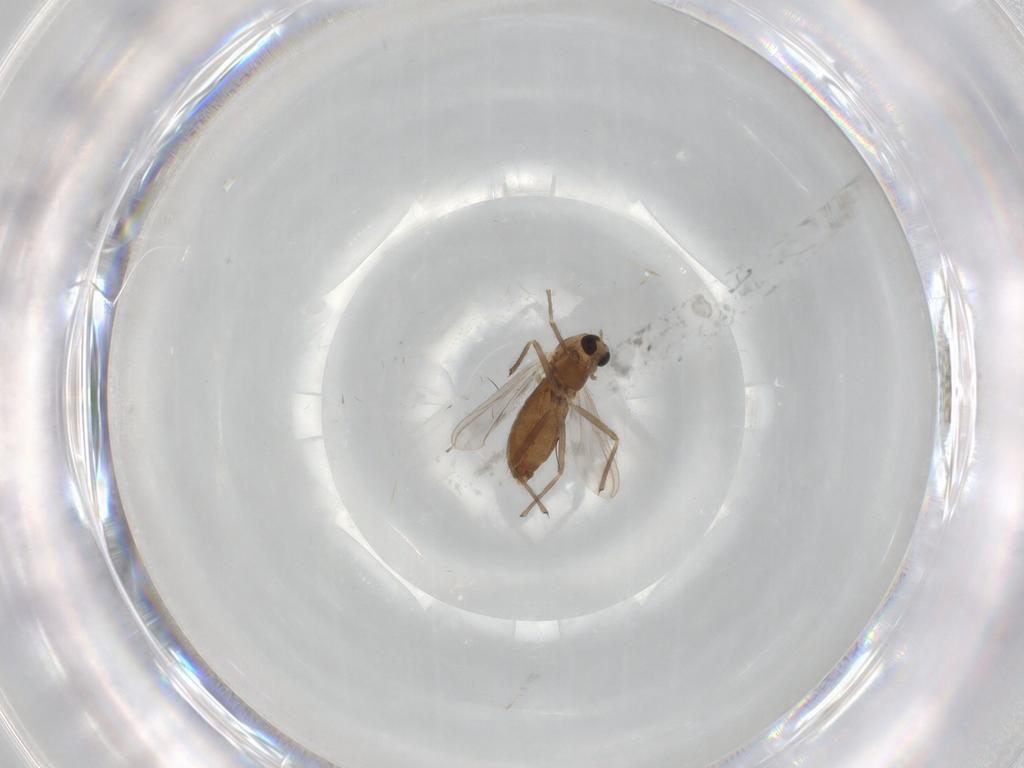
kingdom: Animalia
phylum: Arthropoda
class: Insecta
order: Diptera
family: Chironomidae
